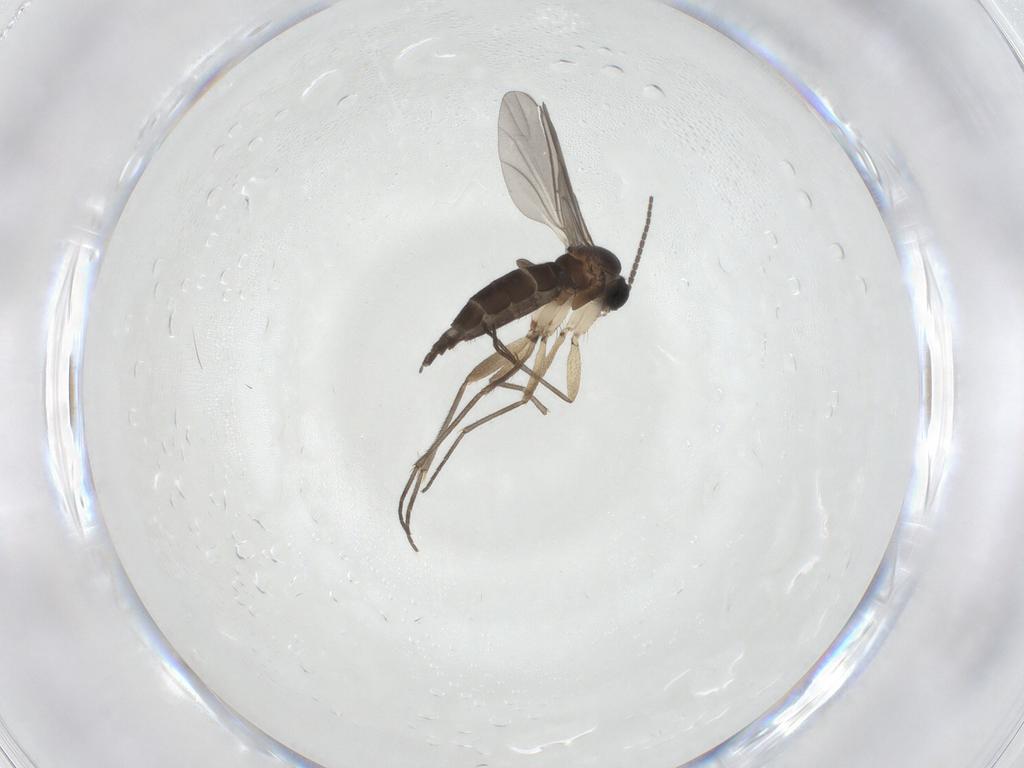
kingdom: Animalia
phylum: Arthropoda
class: Insecta
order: Diptera
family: Sciaridae
